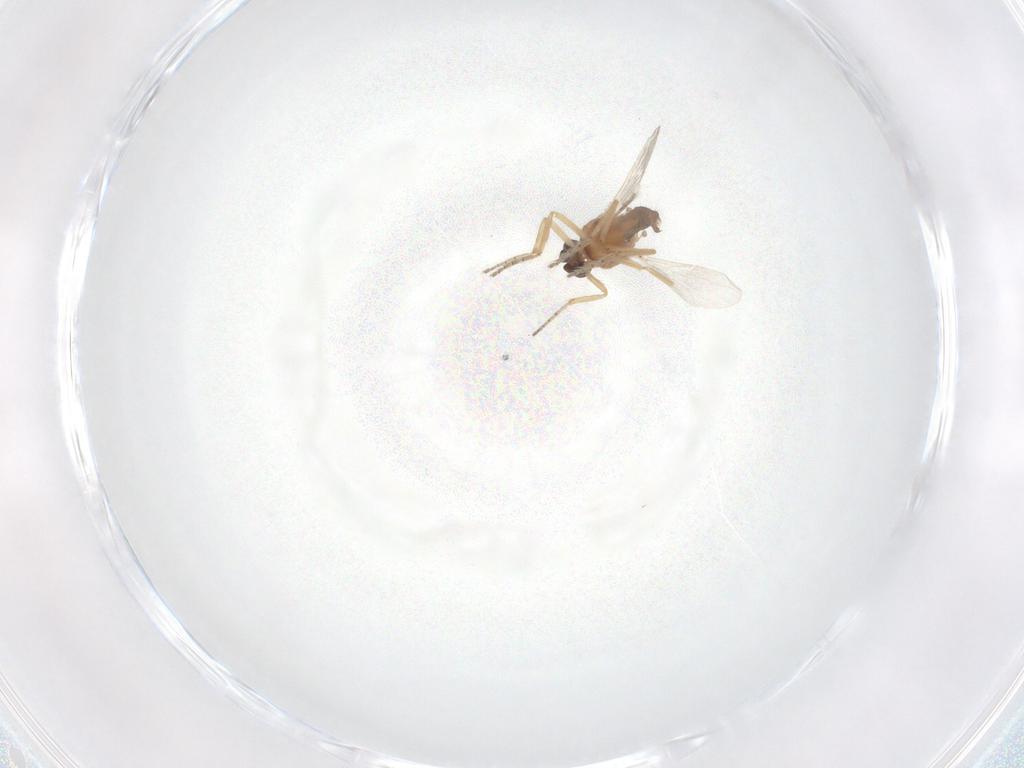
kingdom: Animalia
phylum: Arthropoda
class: Insecta
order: Diptera
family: Ceratopogonidae
